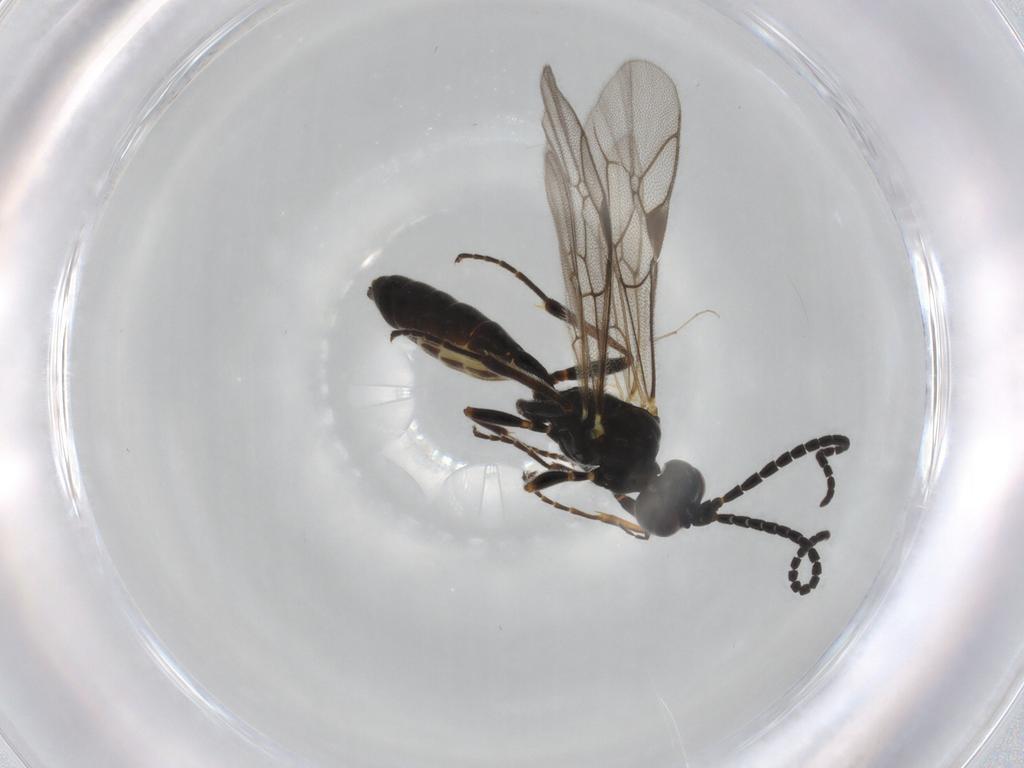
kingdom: Animalia
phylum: Arthropoda
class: Insecta
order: Hymenoptera
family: Ichneumonidae
